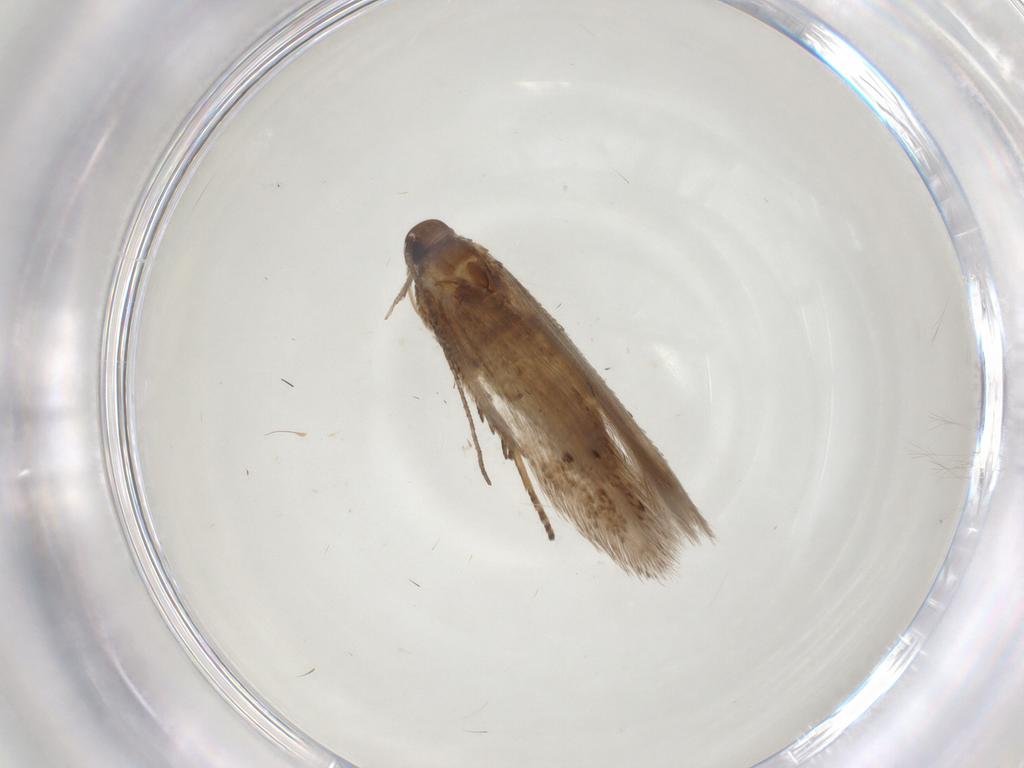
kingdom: Animalia
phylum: Arthropoda
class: Insecta
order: Lepidoptera
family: Gelechiidae
